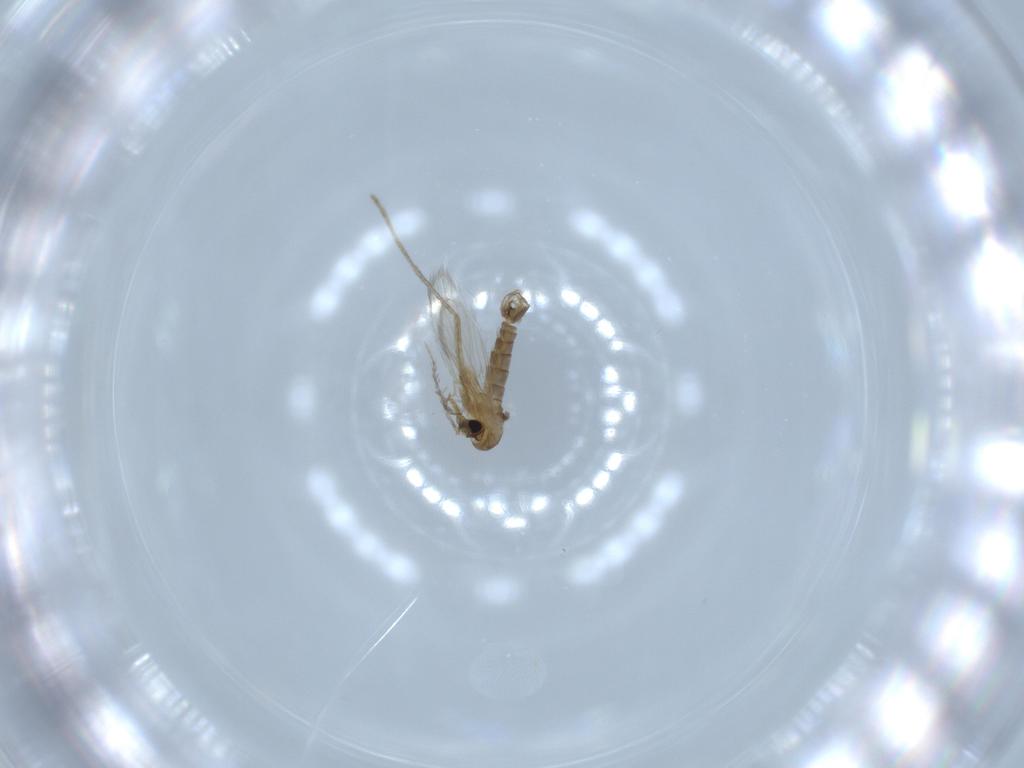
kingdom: Animalia
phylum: Arthropoda
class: Insecta
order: Diptera
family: Psychodidae
